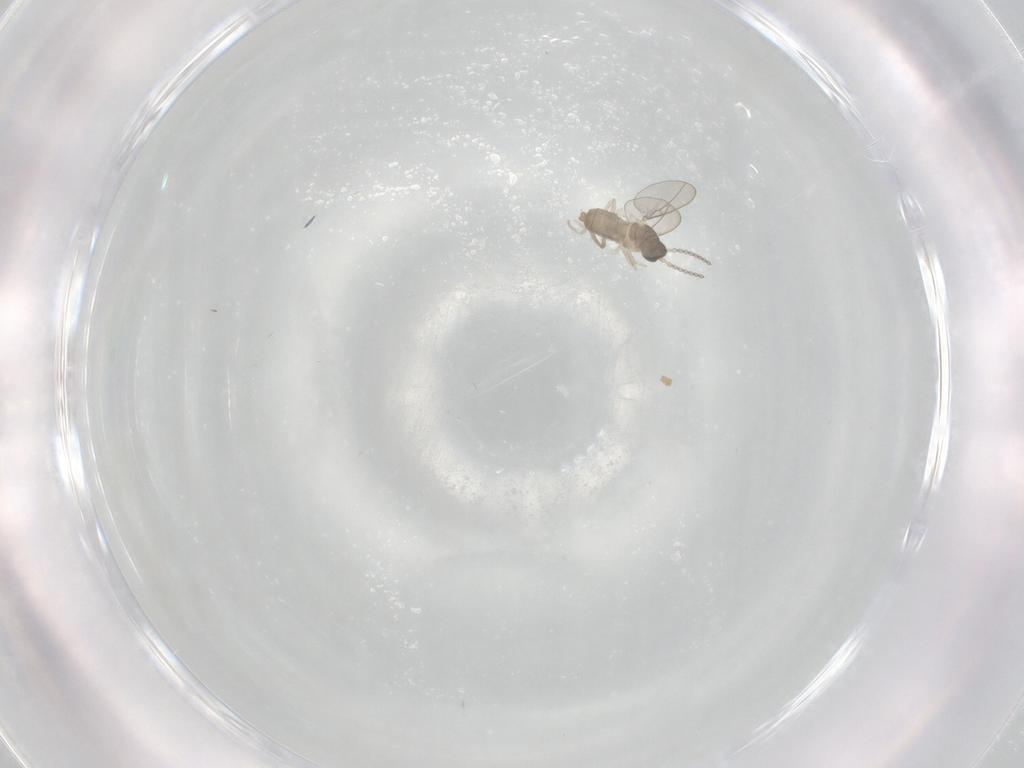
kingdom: Animalia
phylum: Arthropoda
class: Insecta
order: Diptera
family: Cecidomyiidae
